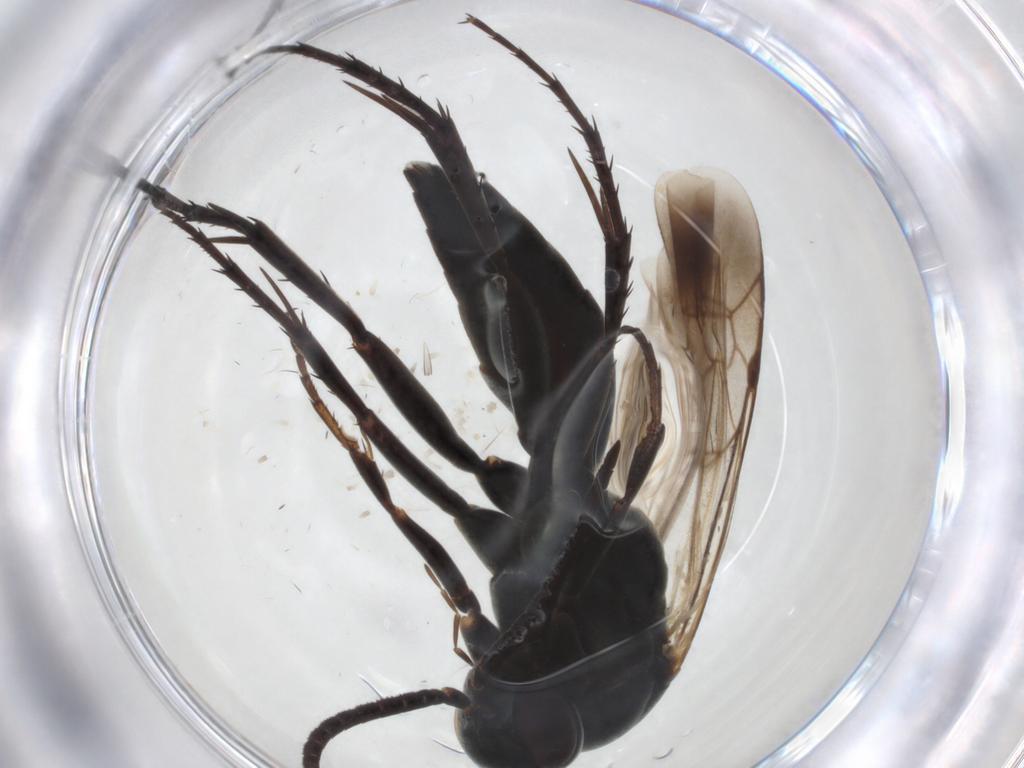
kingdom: Animalia
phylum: Arthropoda
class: Insecta
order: Hymenoptera
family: Pompilidae
